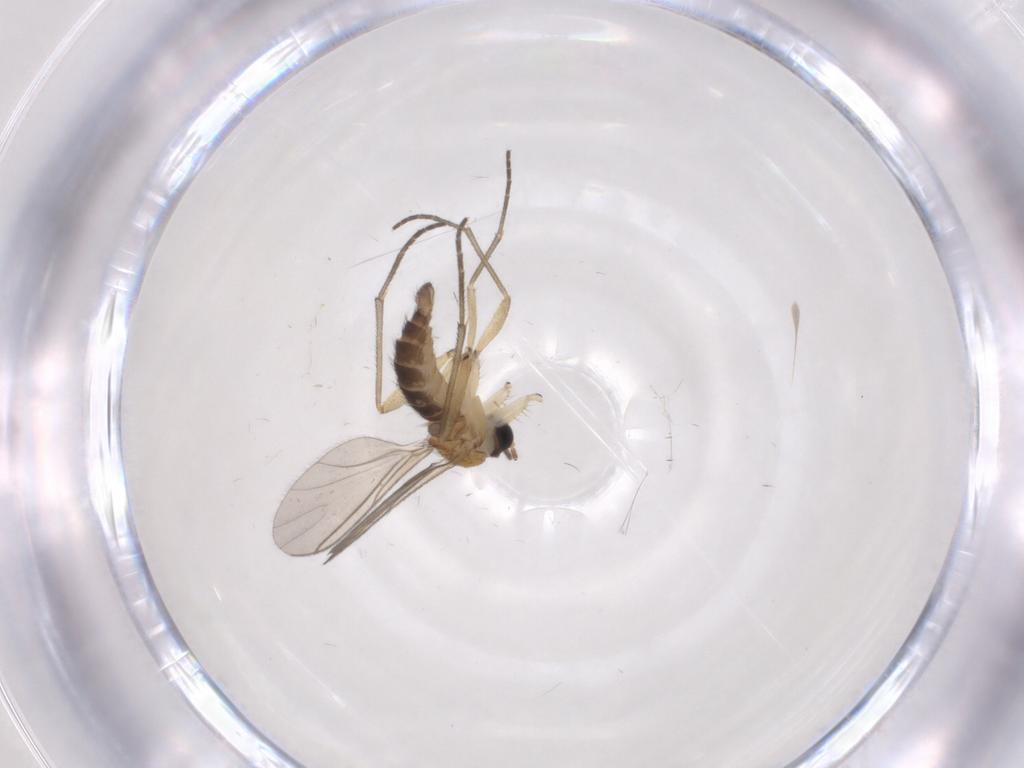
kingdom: Animalia
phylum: Arthropoda
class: Insecta
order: Diptera
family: Cecidomyiidae
